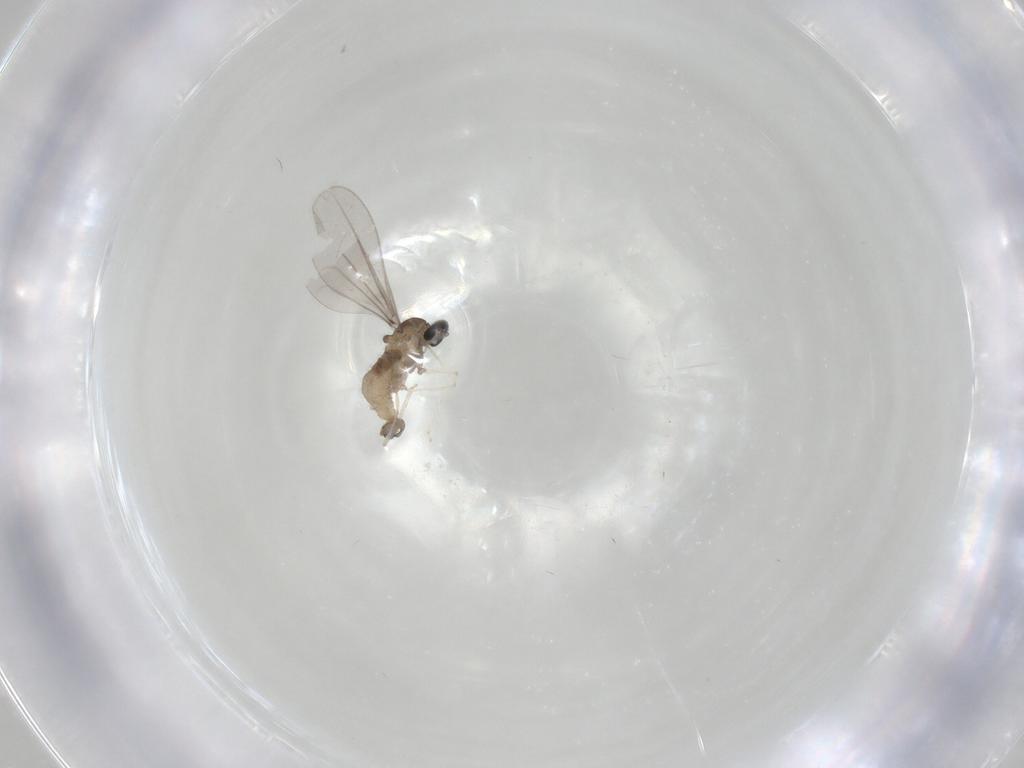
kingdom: Animalia
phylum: Arthropoda
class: Insecta
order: Diptera
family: Cecidomyiidae
